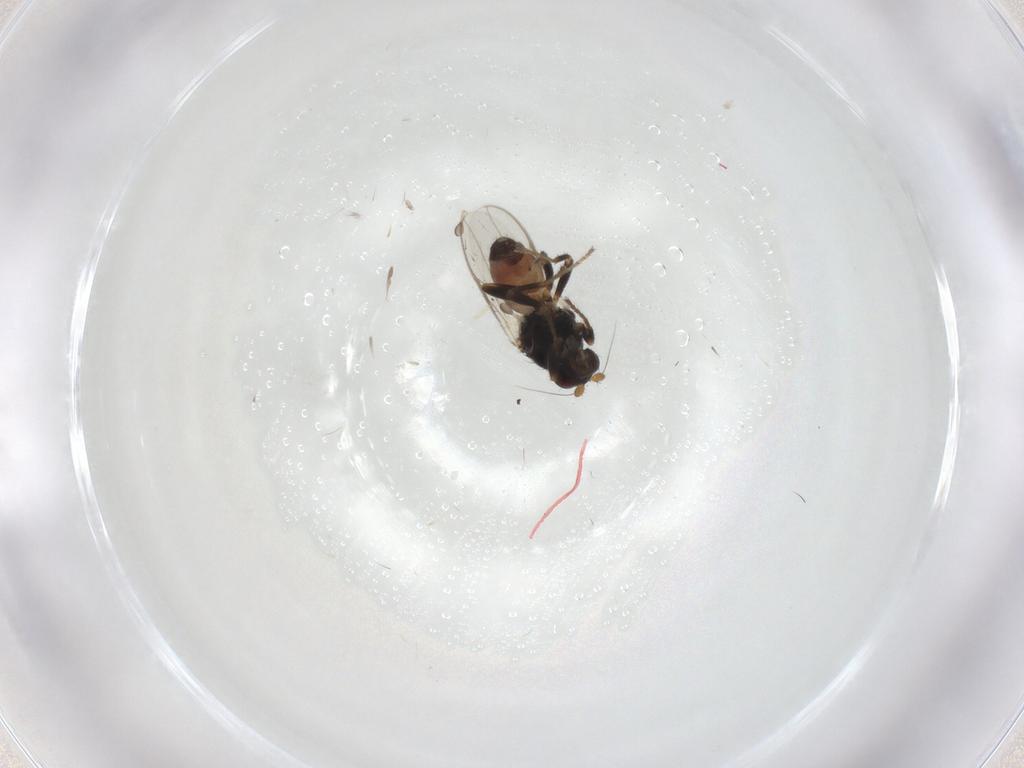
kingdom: Animalia
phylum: Arthropoda
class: Insecta
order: Diptera
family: Sphaeroceridae
